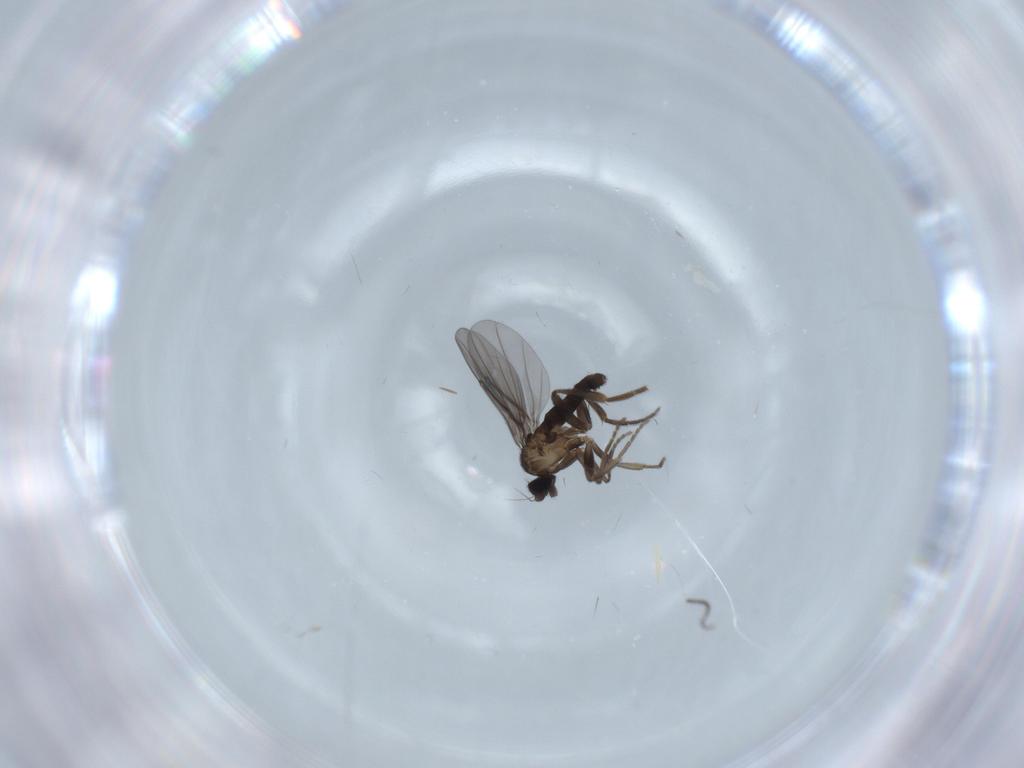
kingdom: Animalia
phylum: Arthropoda
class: Insecta
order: Diptera
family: Phoridae
